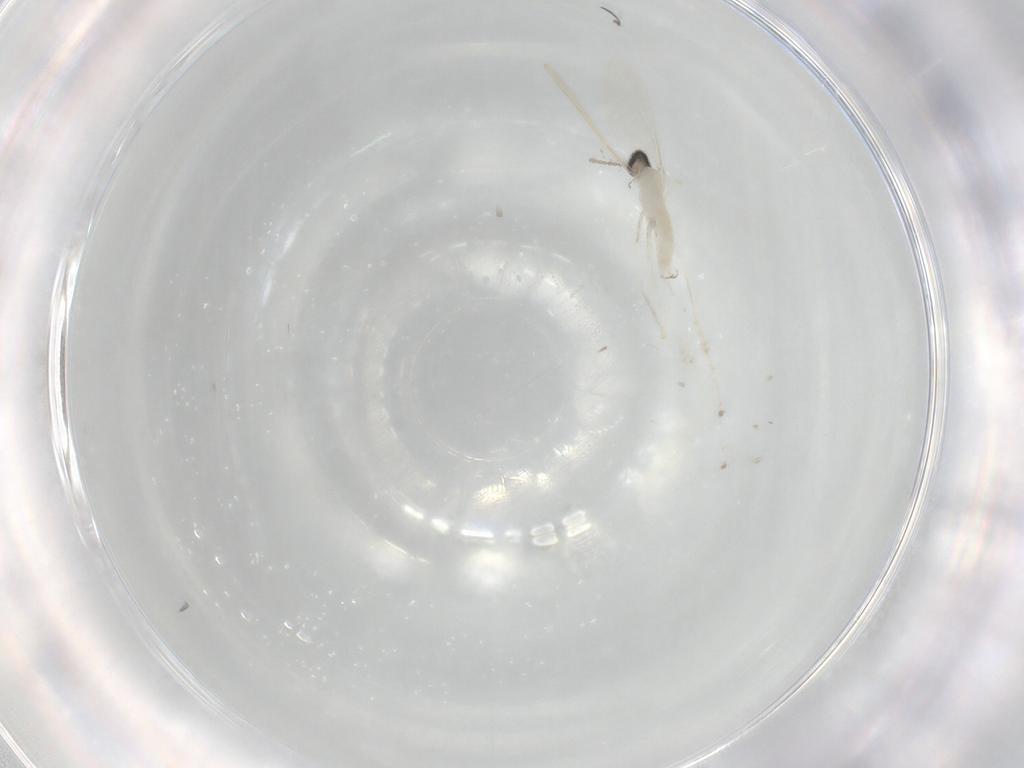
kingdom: Animalia
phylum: Arthropoda
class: Insecta
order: Diptera
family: Cecidomyiidae
